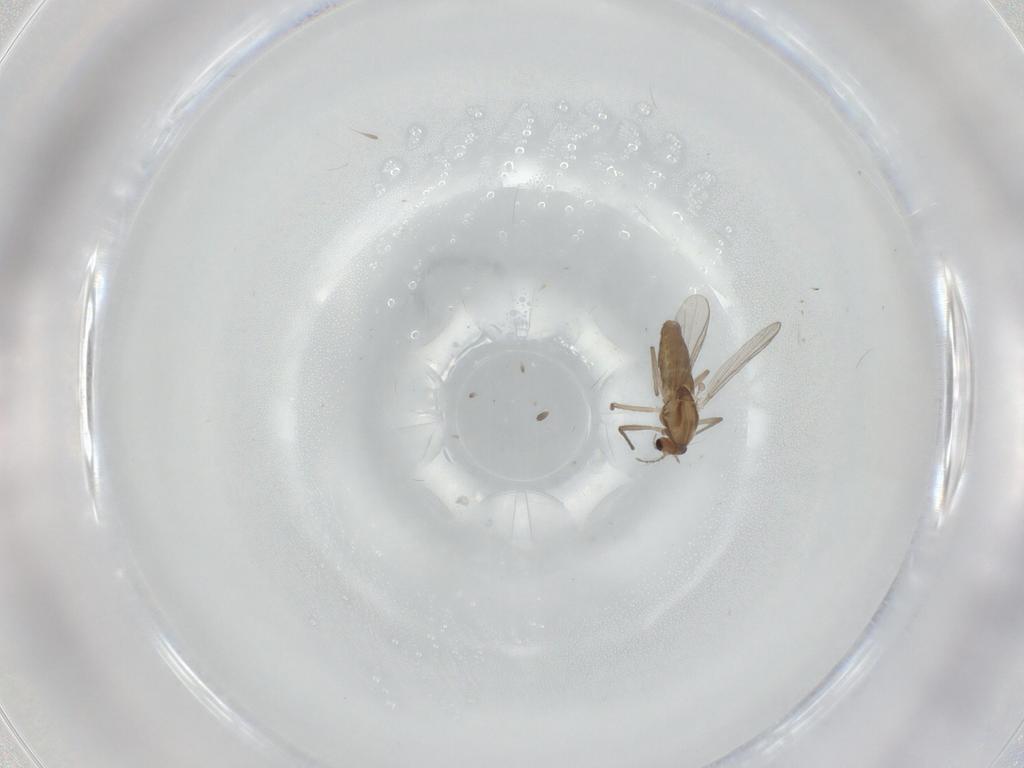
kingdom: Animalia
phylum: Arthropoda
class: Insecta
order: Diptera
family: Chironomidae
